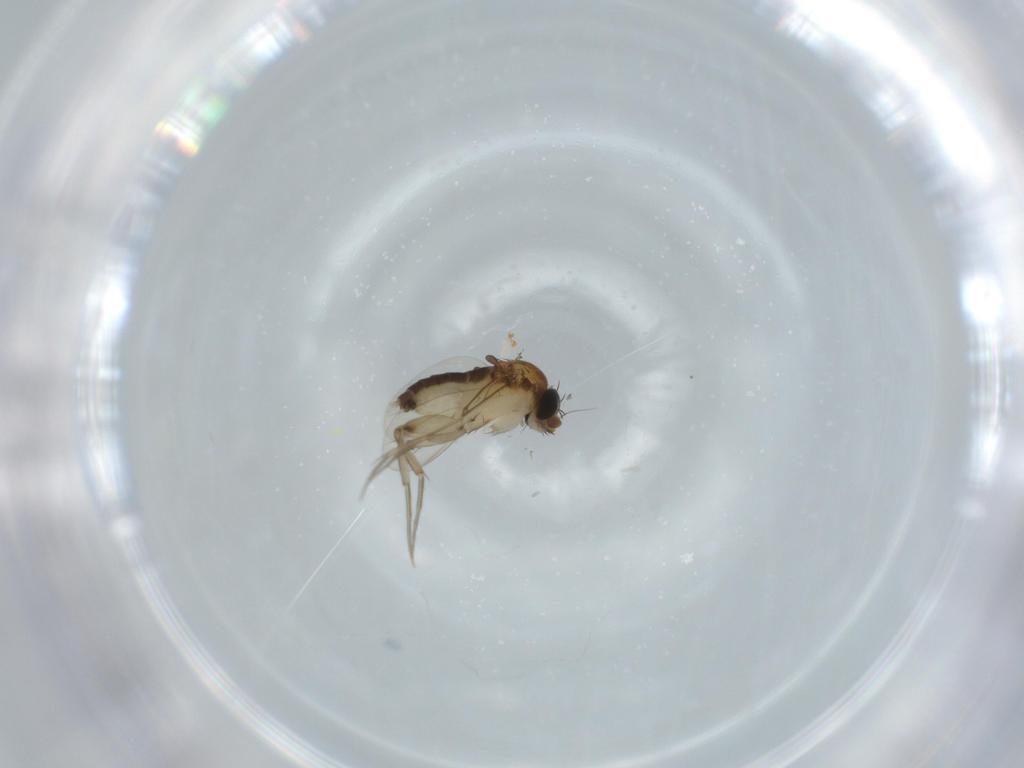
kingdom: Animalia
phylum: Arthropoda
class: Insecta
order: Diptera
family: Phoridae
